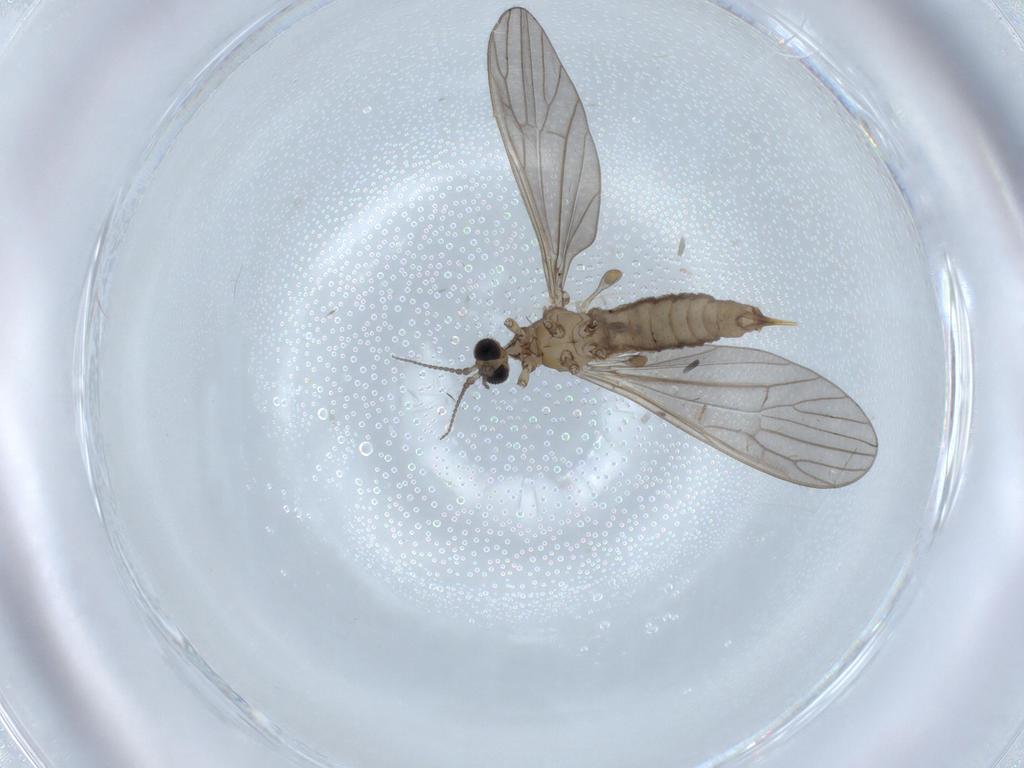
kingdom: Animalia
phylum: Arthropoda
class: Insecta
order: Diptera
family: Limoniidae
